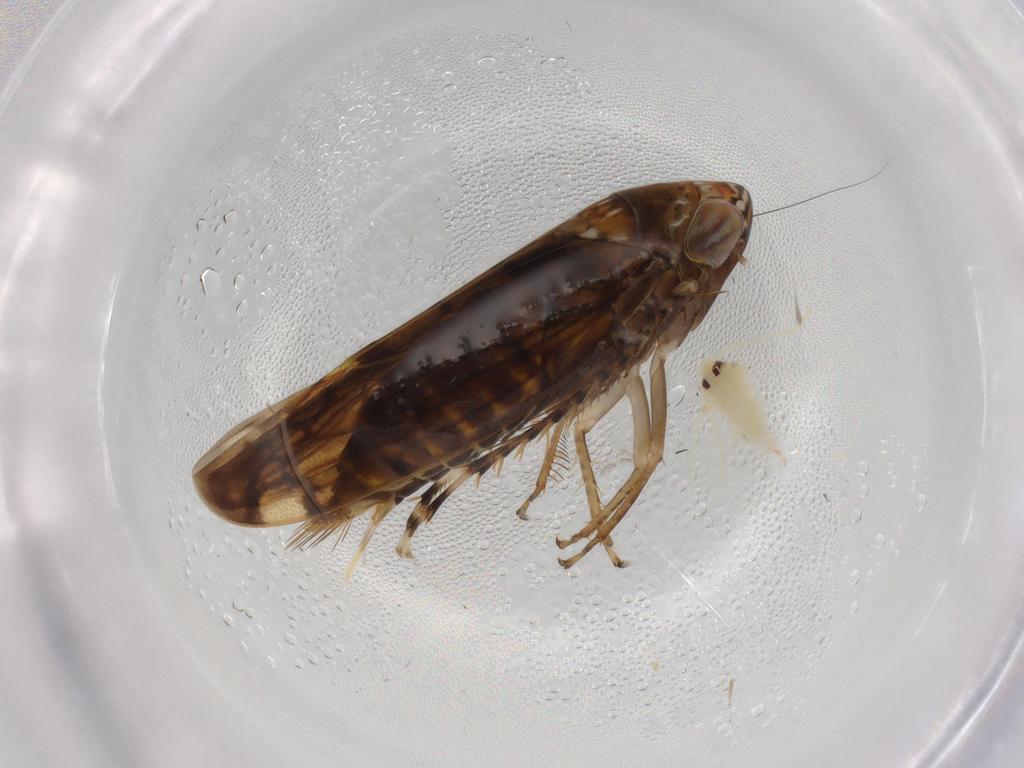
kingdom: Animalia
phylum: Arthropoda
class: Insecta
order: Hemiptera
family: Cicadellidae
